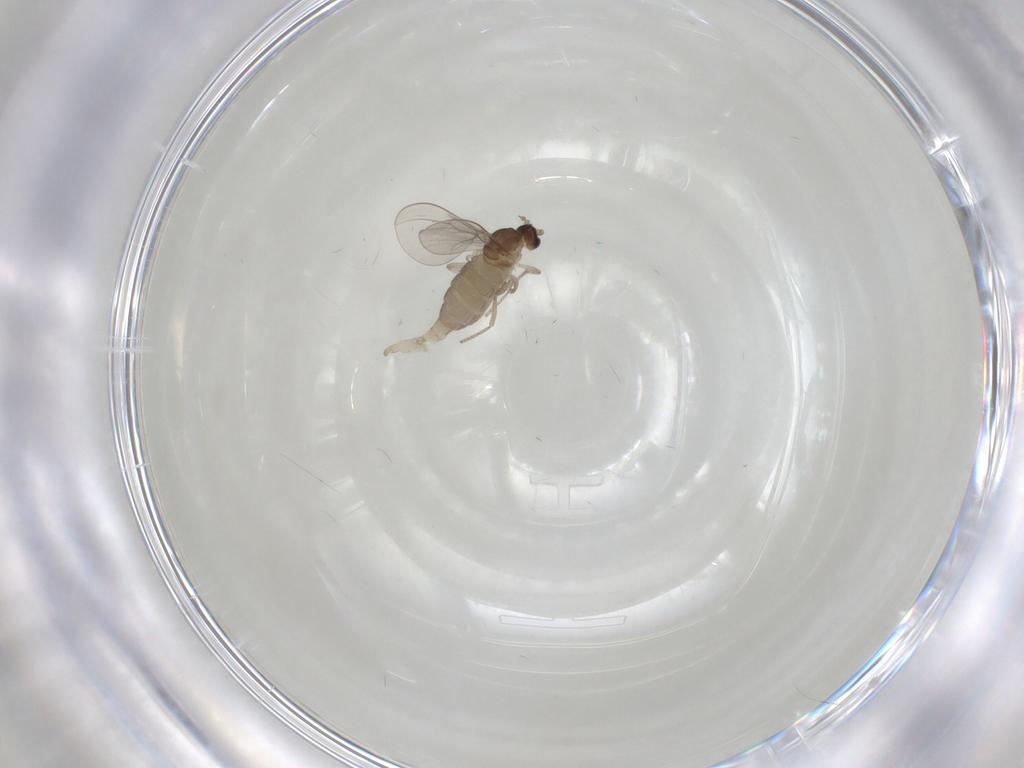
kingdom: Animalia
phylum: Arthropoda
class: Insecta
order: Diptera
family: Cecidomyiidae
